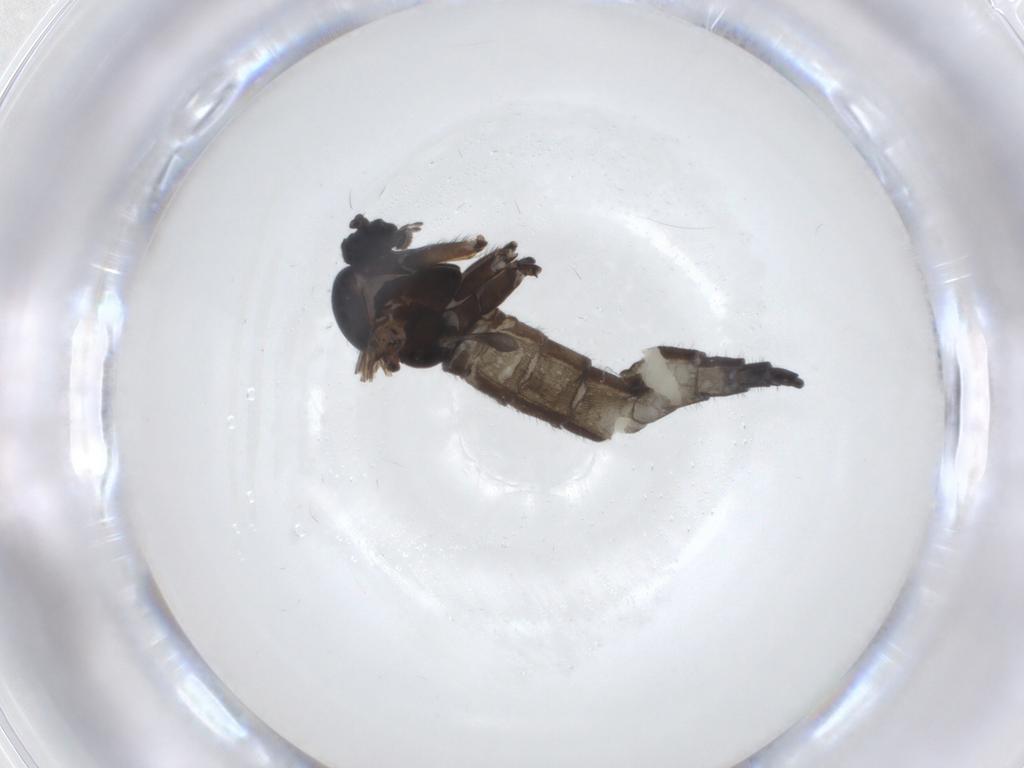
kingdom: Animalia
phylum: Arthropoda
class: Insecta
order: Diptera
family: Sciaridae
